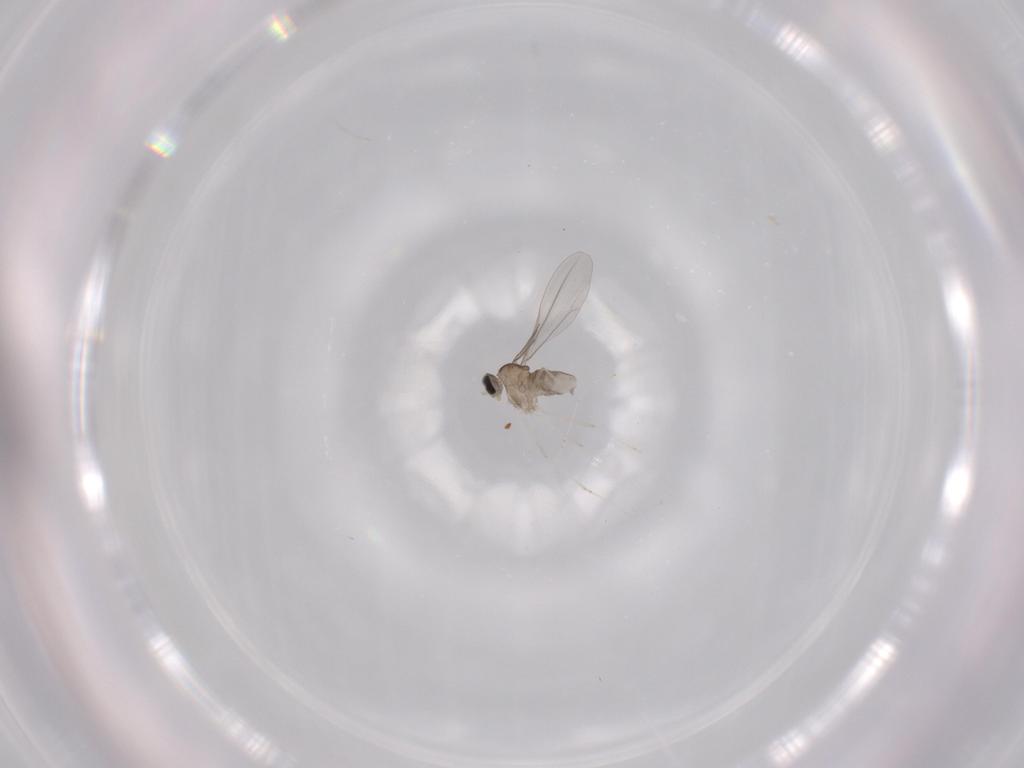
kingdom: Animalia
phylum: Arthropoda
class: Insecta
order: Diptera
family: Cecidomyiidae
